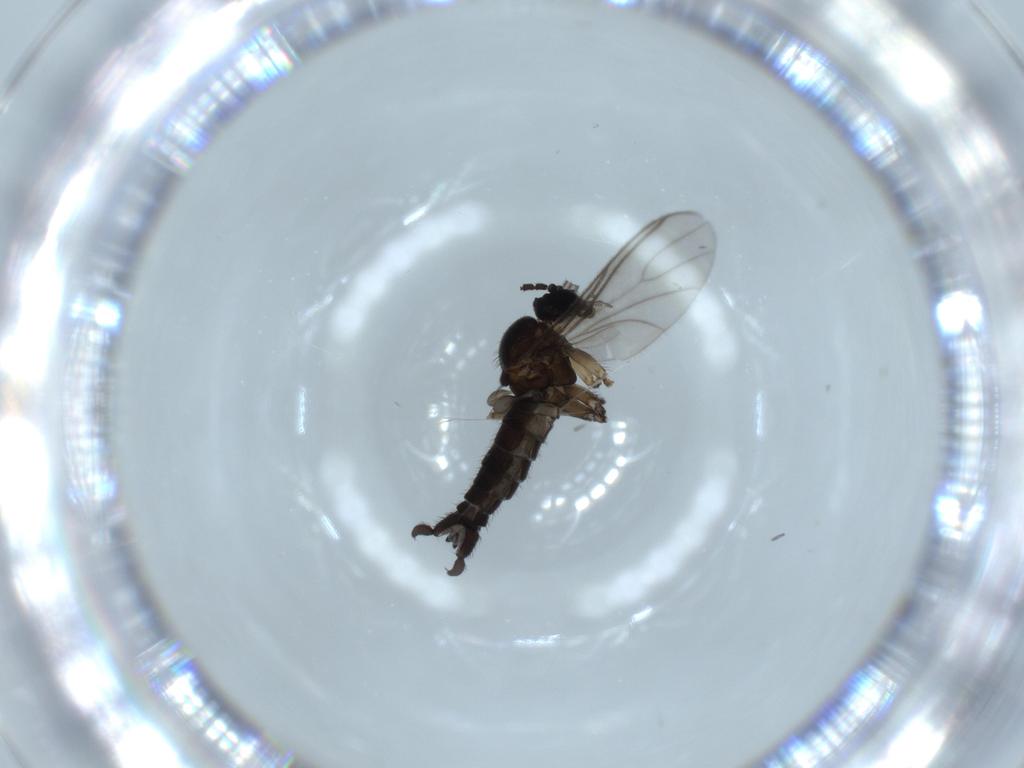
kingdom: Animalia
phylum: Arthropoda
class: Insecta
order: Diptera
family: Sciaridae
